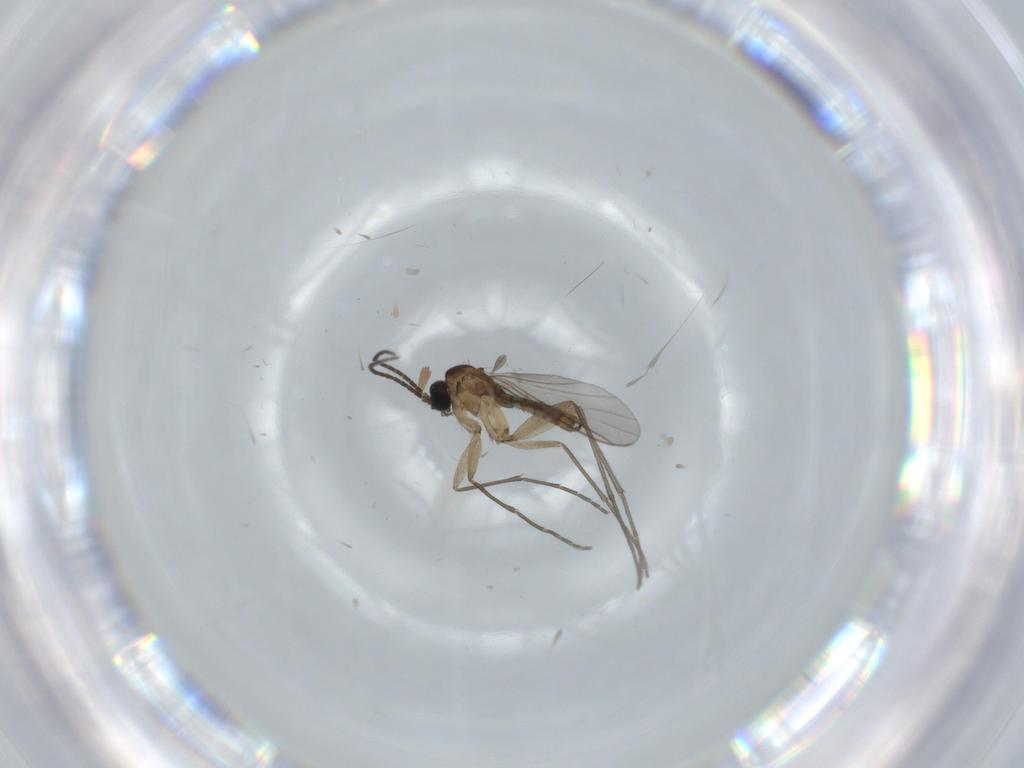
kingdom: Animalia
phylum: Arthropoda
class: Insecta
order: Diptera
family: Sciaridae
